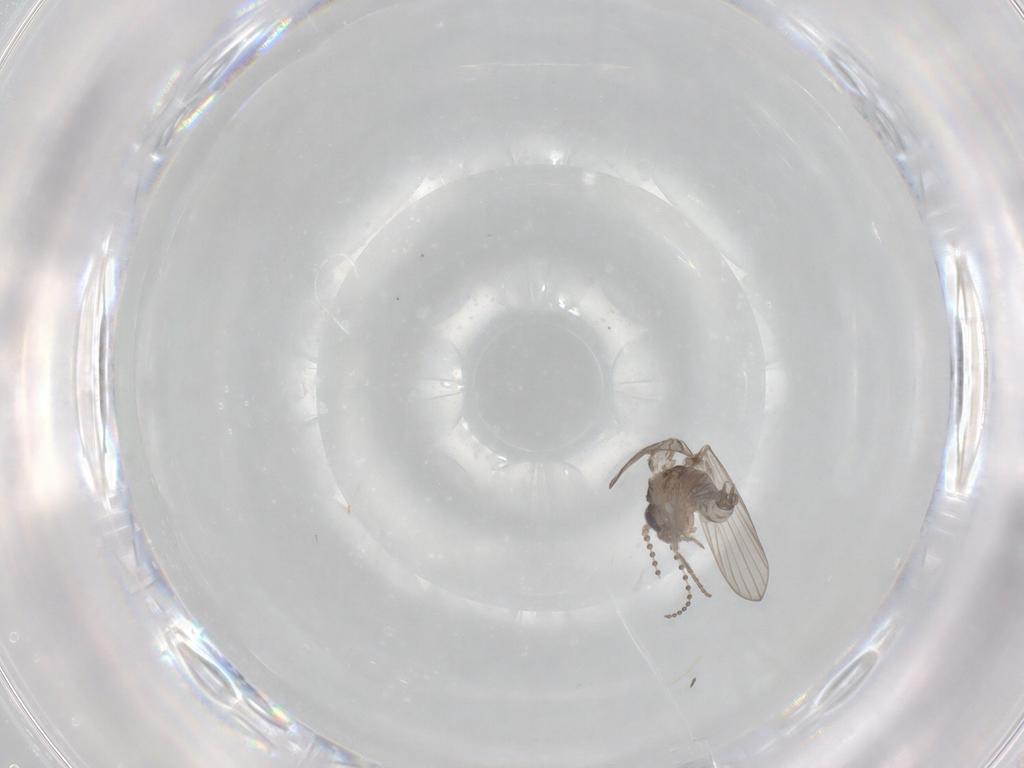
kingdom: Animalia
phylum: Arthropoda
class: Insecta
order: Diptera
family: Psychodidae
